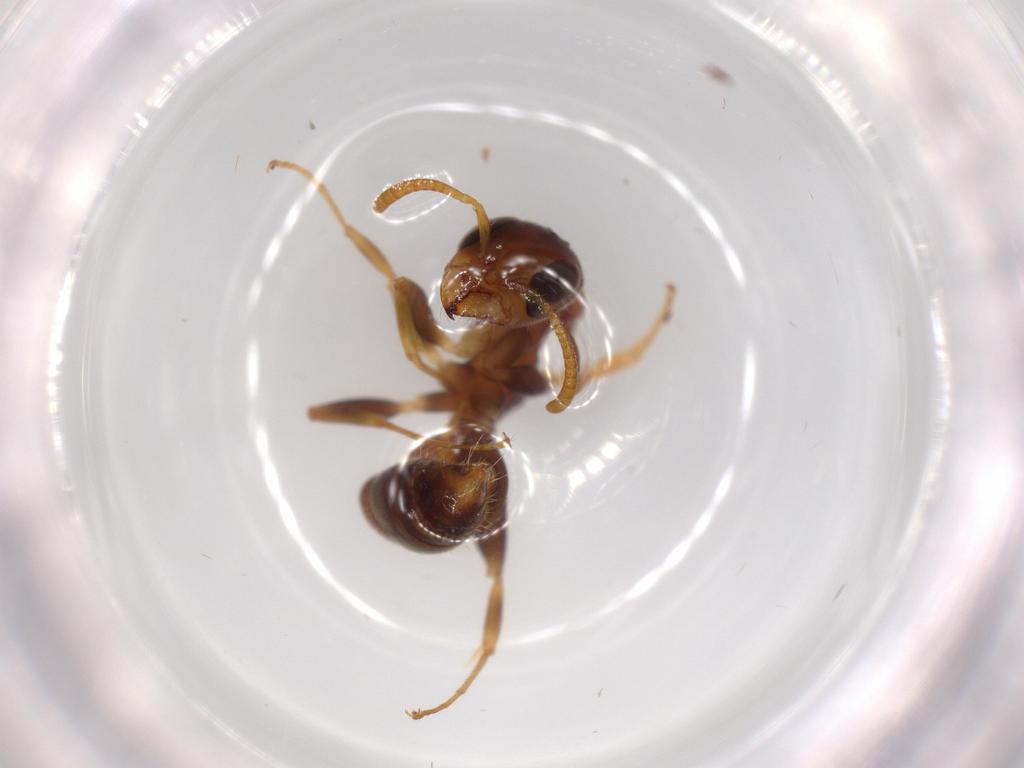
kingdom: Animalia
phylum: Arthropoda
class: Insecta
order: Hymenoptera
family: Formicidae
